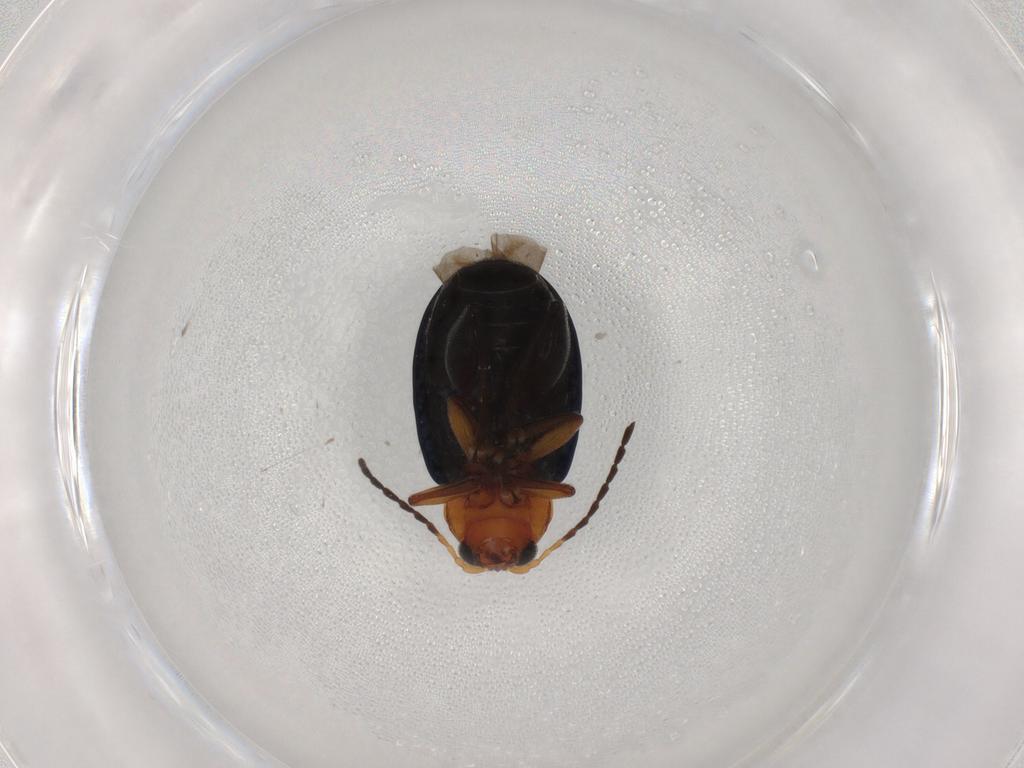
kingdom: Animalia
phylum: Arthropoda
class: Insecta
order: Coleoptera
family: Chrysomelidae
